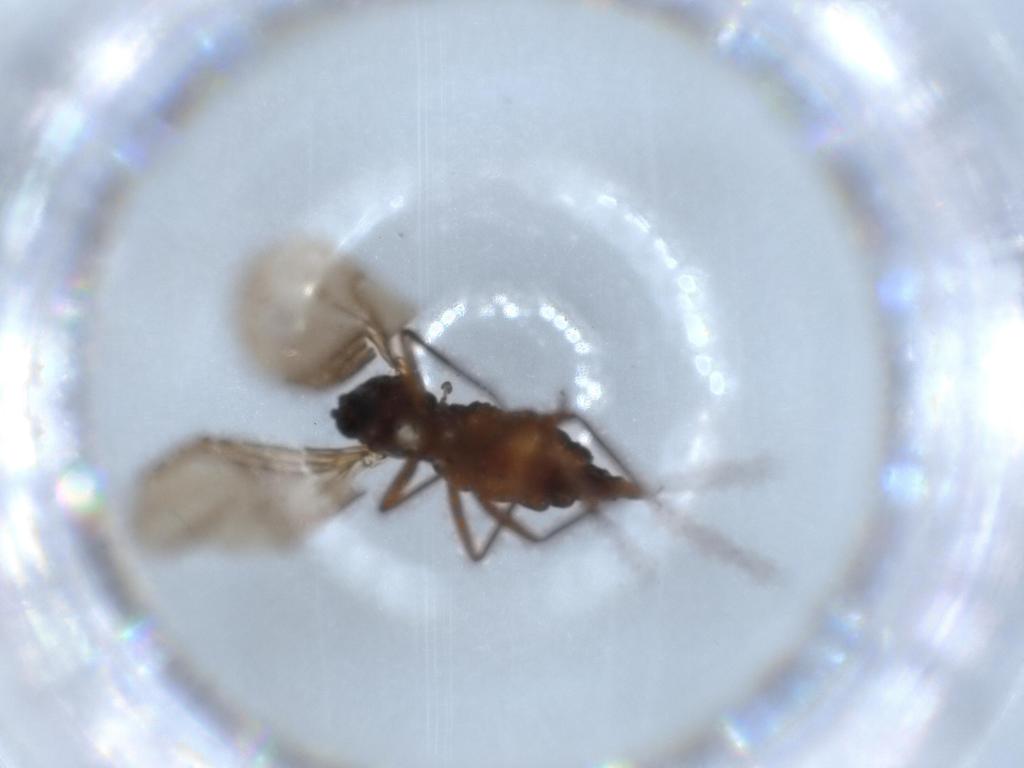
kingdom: Animalia
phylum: Arthropoda
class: Insecta
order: Diptera
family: Sciaridae
